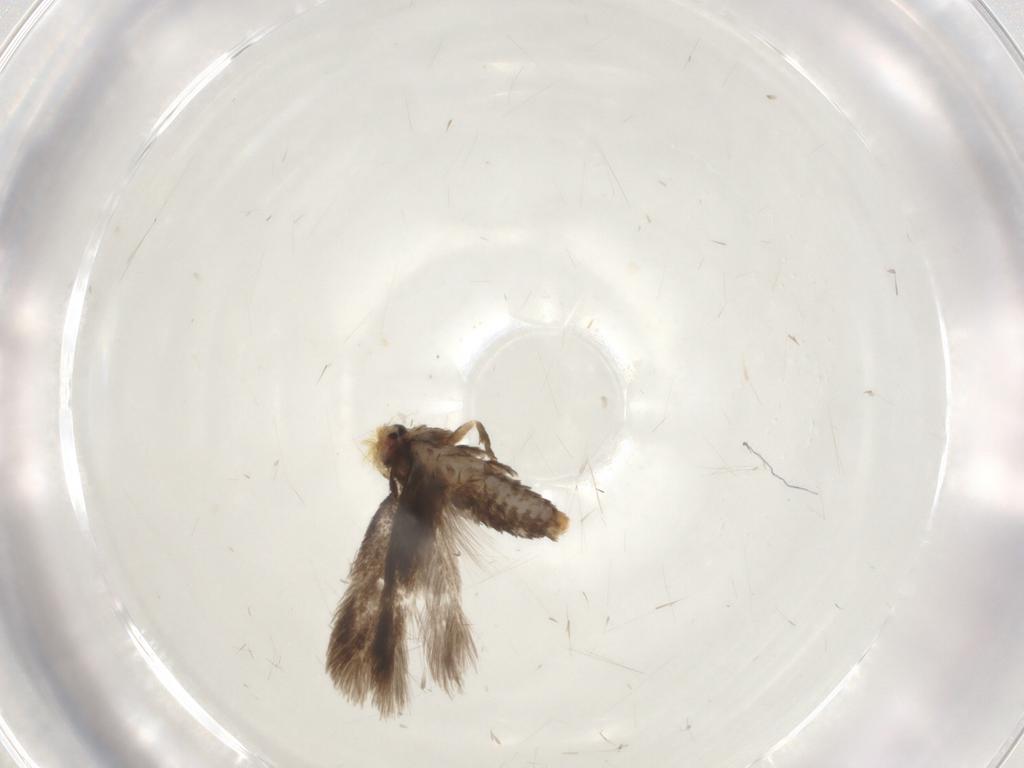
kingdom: Animalia
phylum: Arthropoda
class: Insecta
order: Lepidoptera
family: Nepticulidae
